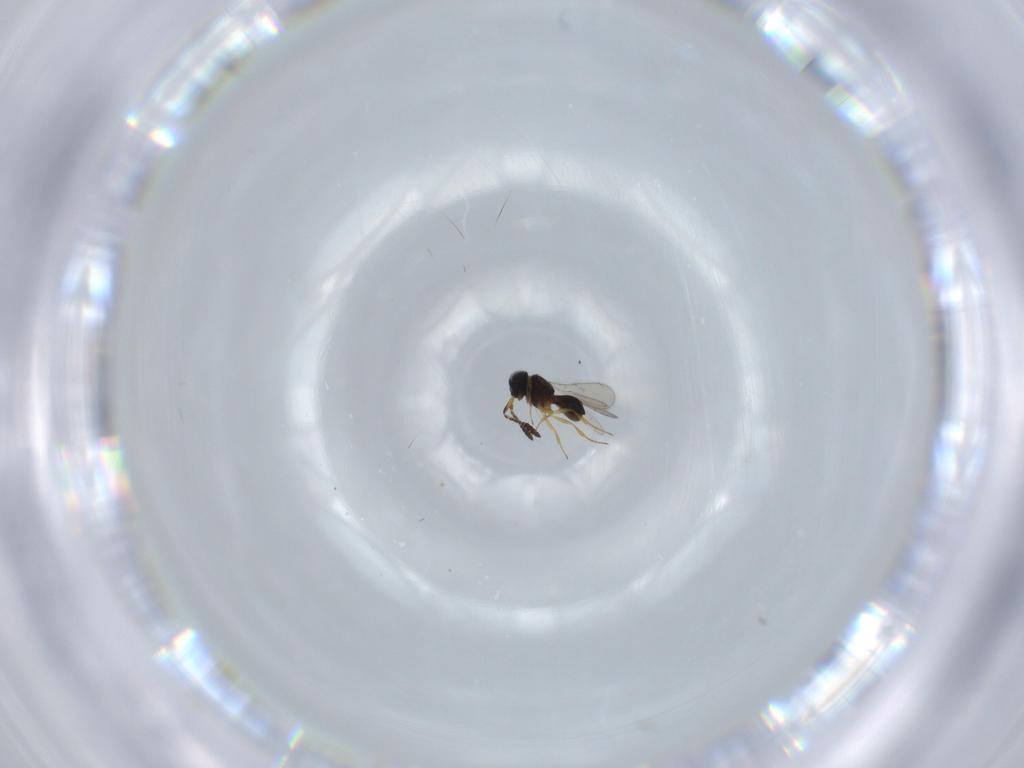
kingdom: Animalia
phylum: Arthropoda
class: Insecta
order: Hymenoptera
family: Scelionidae
